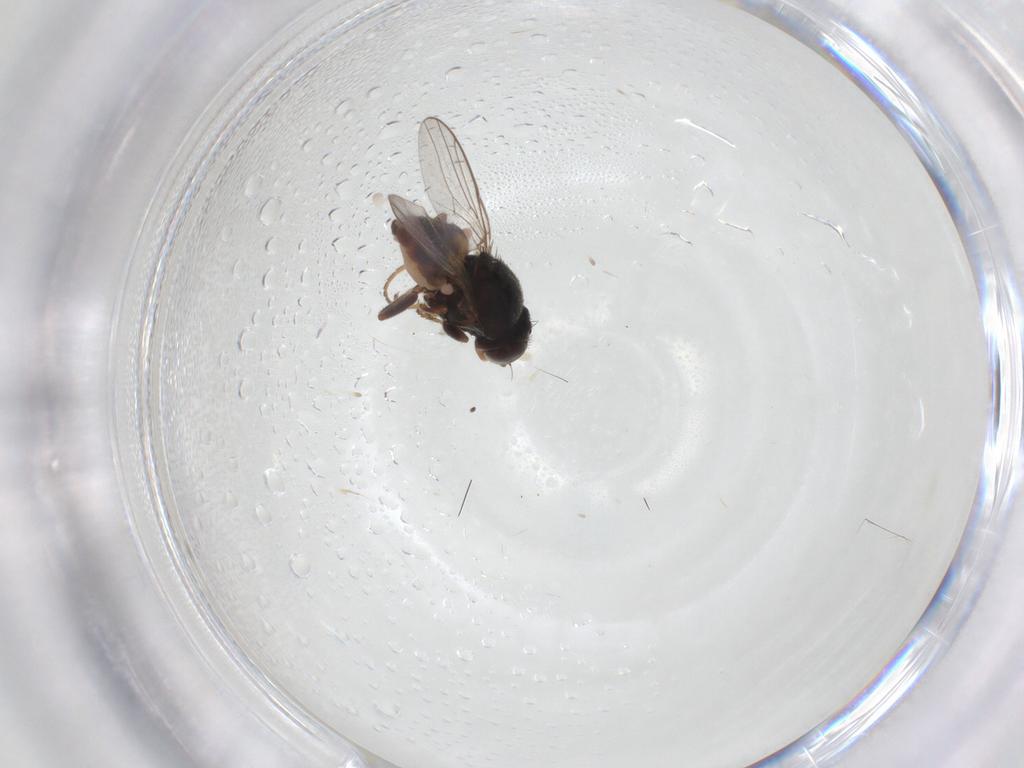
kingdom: Animalia
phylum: Arthropoda
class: Insecta
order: Diptera
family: Chloropidae
